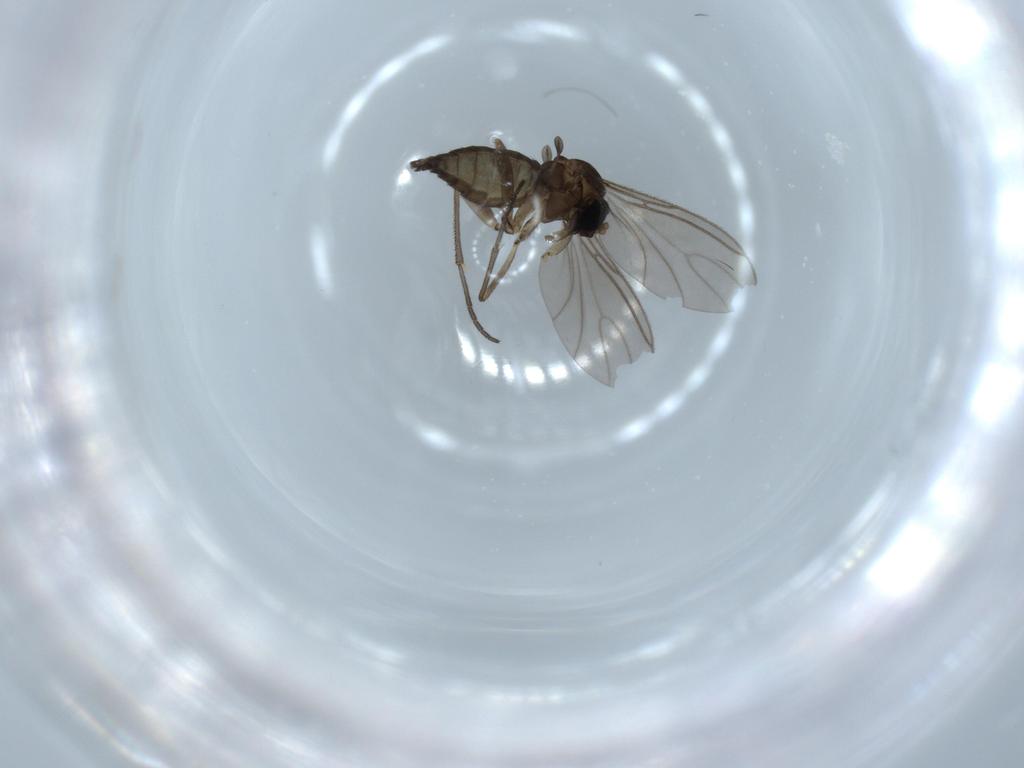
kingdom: Animalia
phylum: Arthropoda
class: Insecta
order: Diptera
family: Sciaridae
